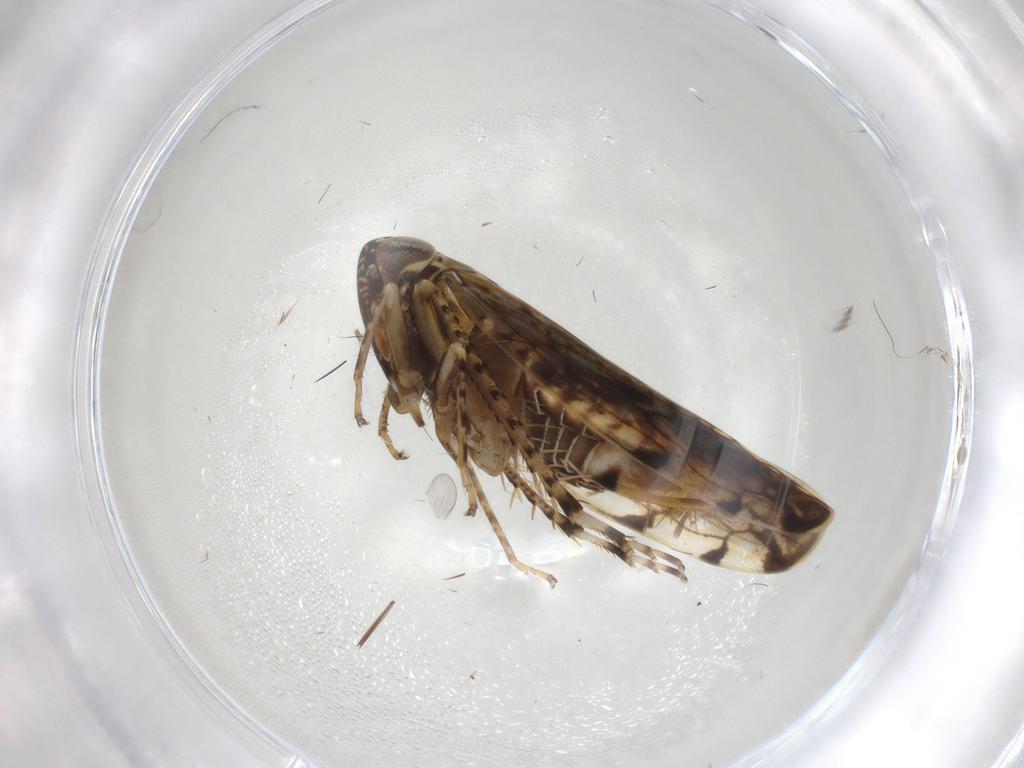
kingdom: Animalia
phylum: Arthropoda
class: Insecta
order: Hemiptera
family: Cicadellidae
